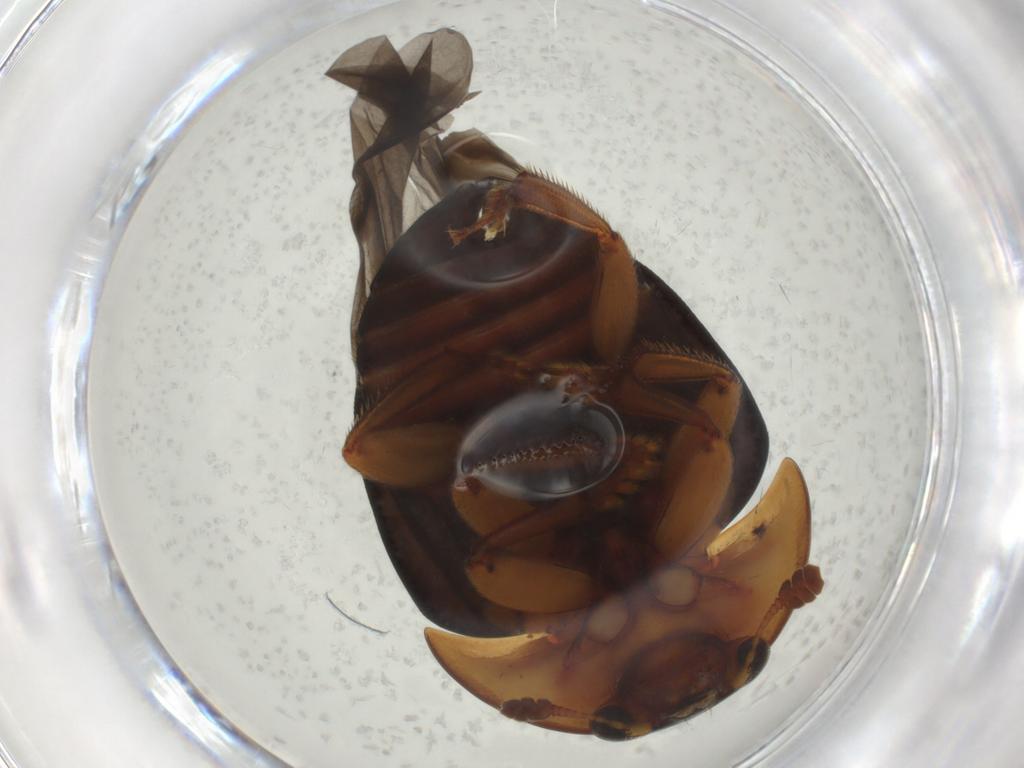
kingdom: Animalia
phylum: Arthropoda
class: Insecta
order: Coleoptera
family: Nitidulidae
